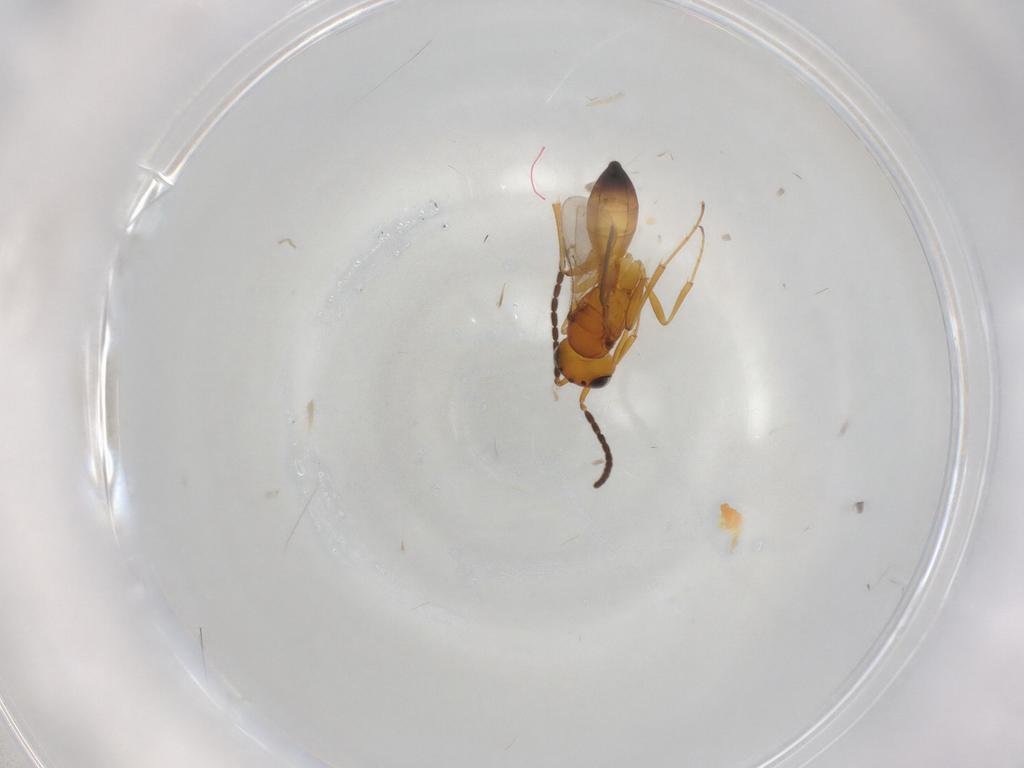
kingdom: Animalia
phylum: Arthropoda
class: Insecta
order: Hymenoptera
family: Scelionidae
